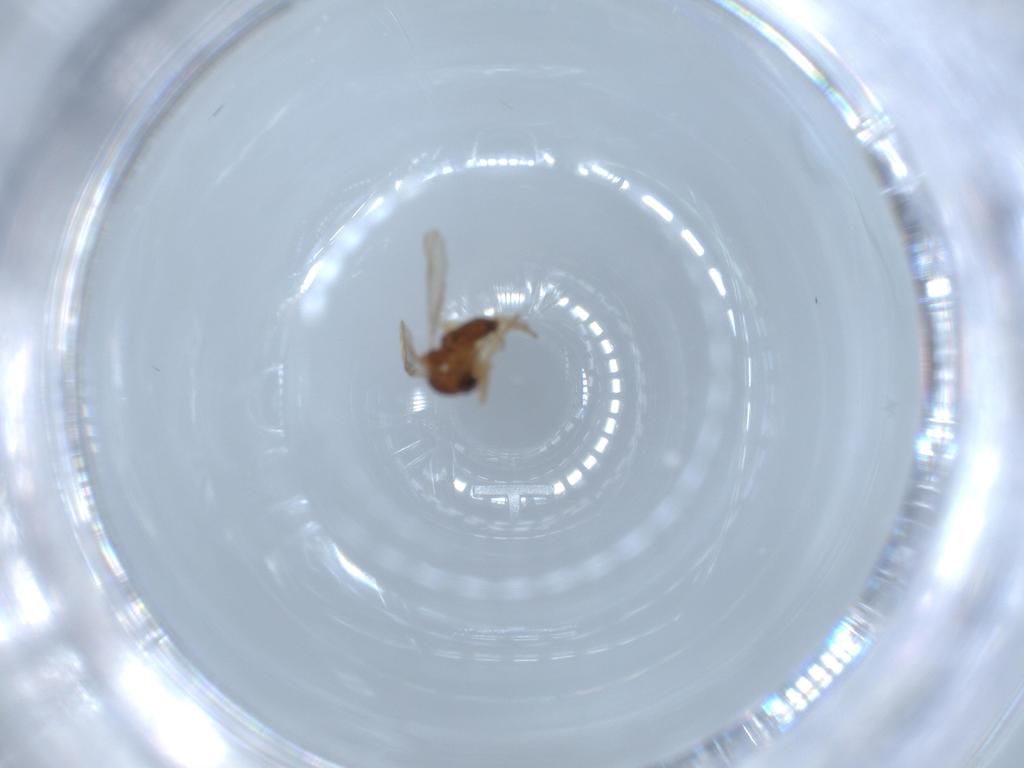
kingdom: Animalia
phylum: Arthropoda
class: Insecta
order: Diptera
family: Ceratopogonidae
